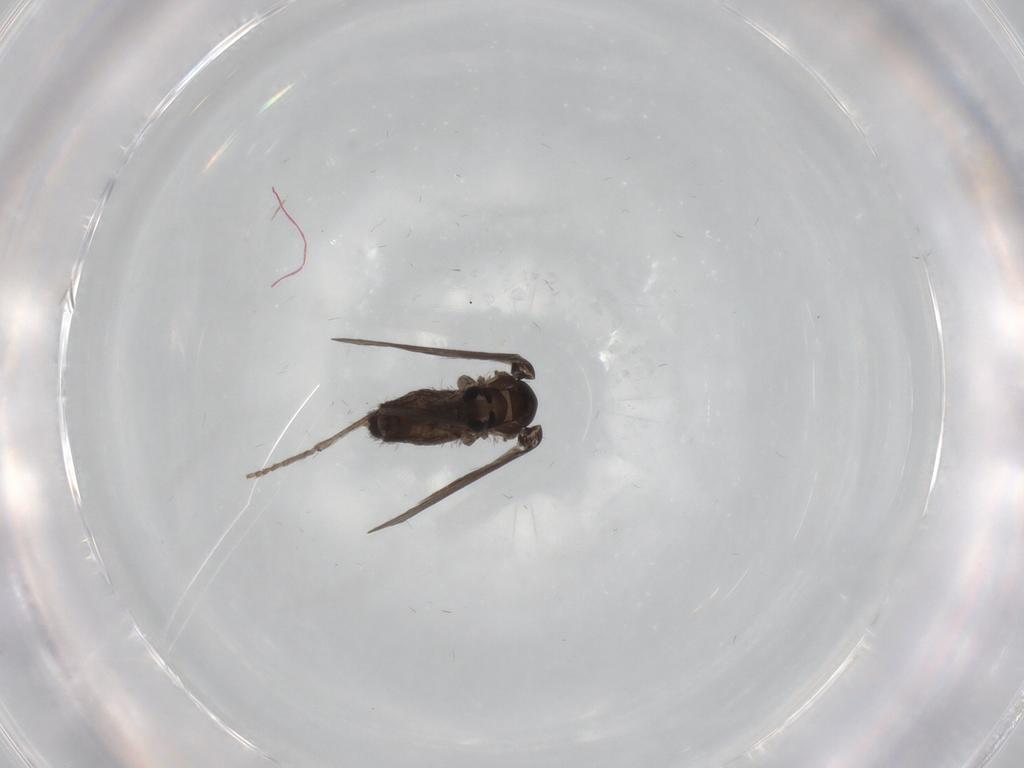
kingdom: Animalia
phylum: Arthropoda
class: Insecta
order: Diptera
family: Psychodidae
